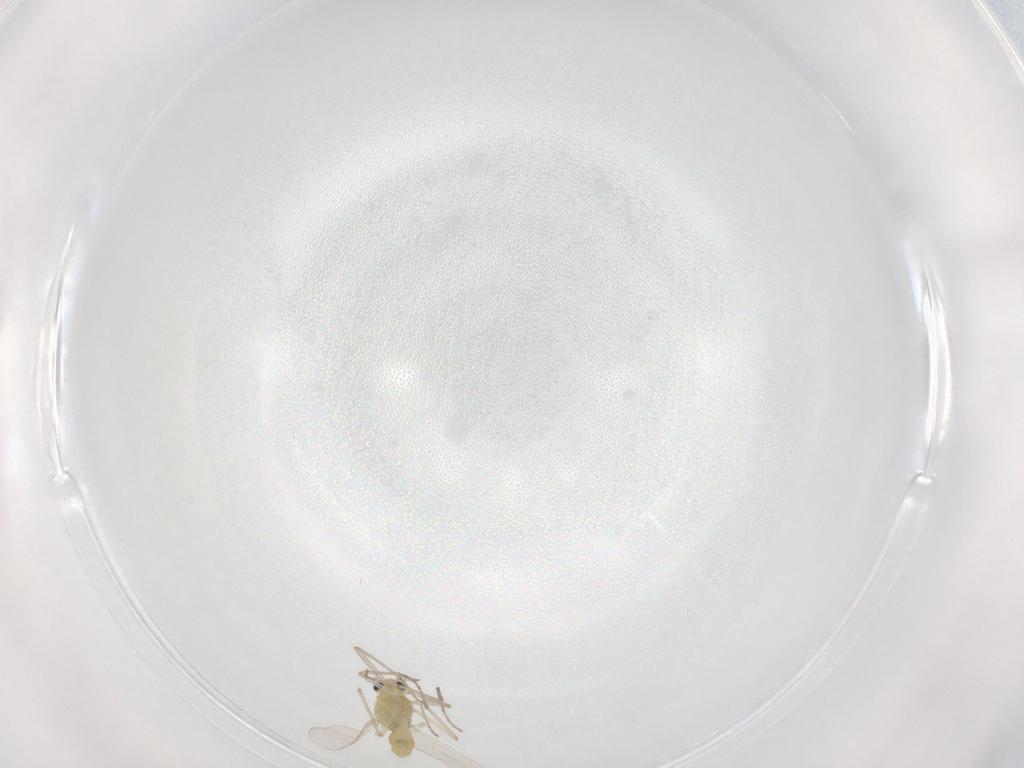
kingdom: Animalia
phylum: Arthropoda
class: Insecta
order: Diptera
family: Chironomidae
